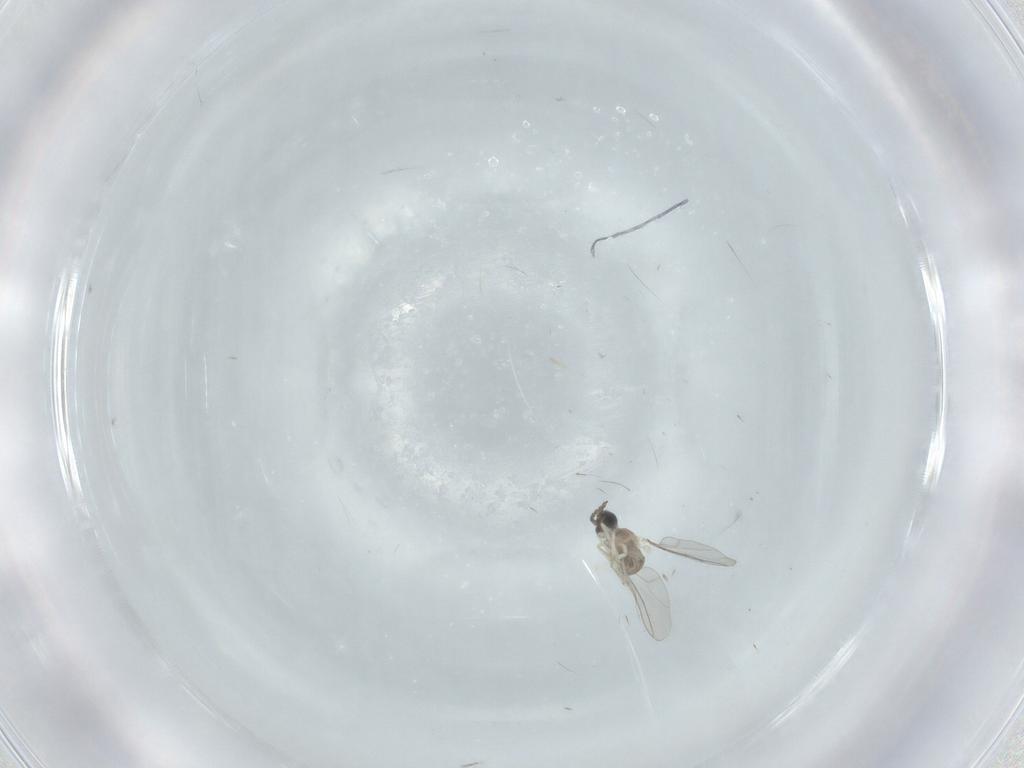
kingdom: Animalia
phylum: Arthropoda
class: Insecta
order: Diptera
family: Cecidomyiidae
